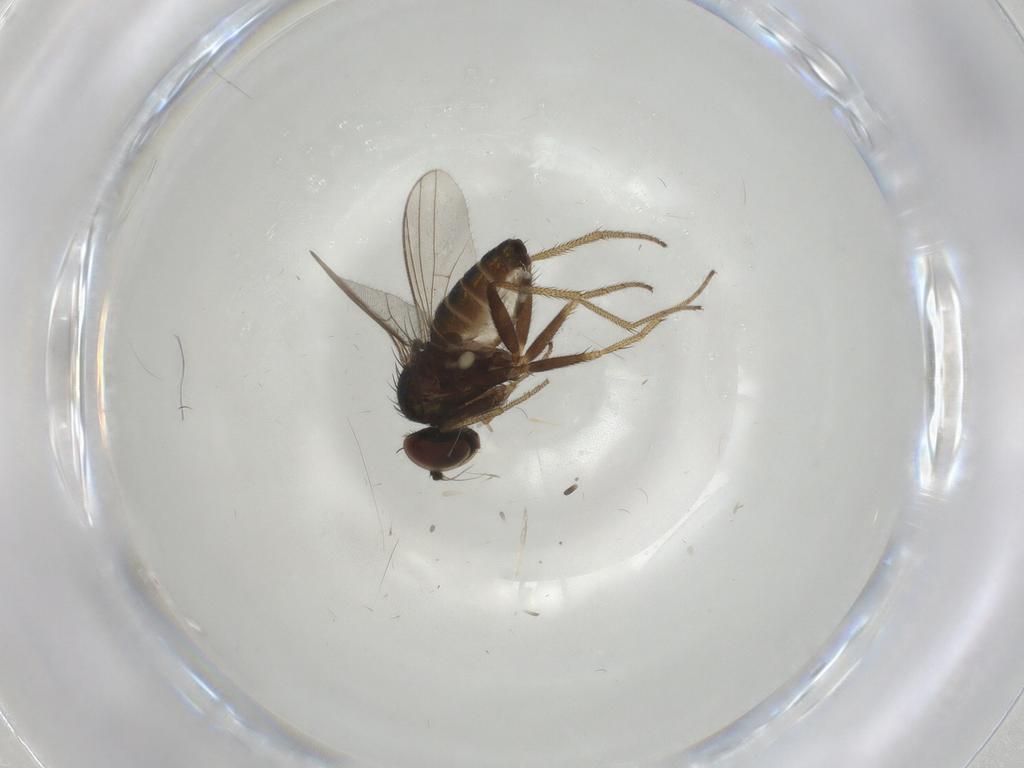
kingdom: Animalia
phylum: Arthropoda
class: Insecta
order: Diptera
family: Dolichopodidae
